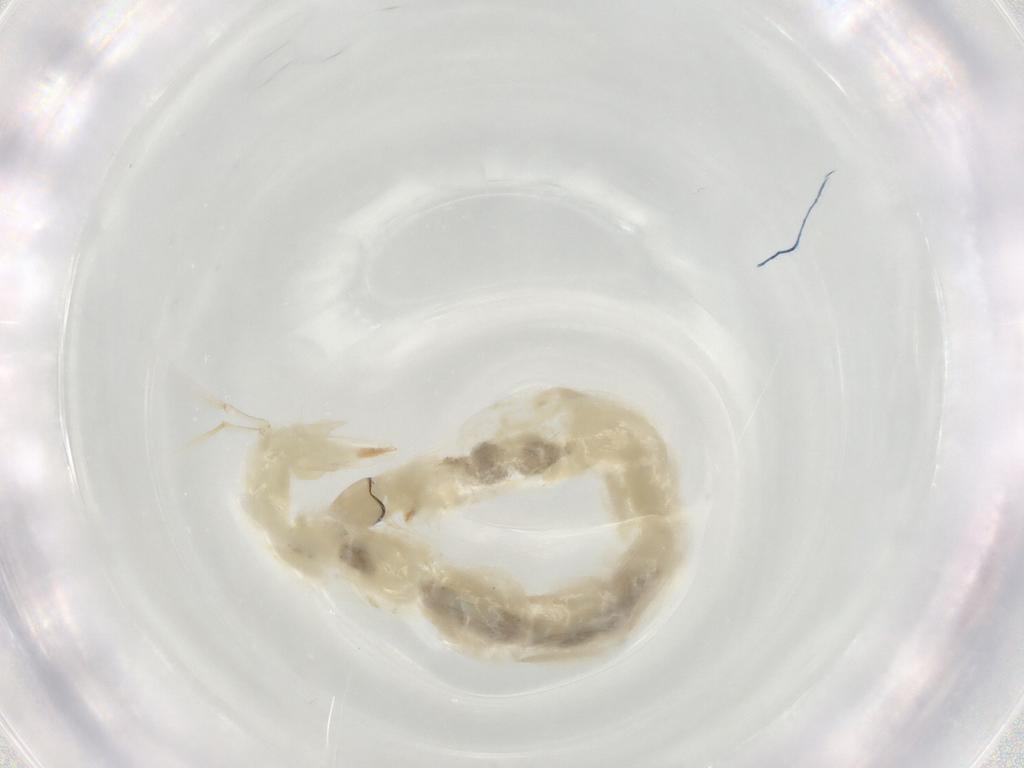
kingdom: Animalia
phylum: Arthropoda
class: Insecta
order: Diptera
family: Chironomidae
